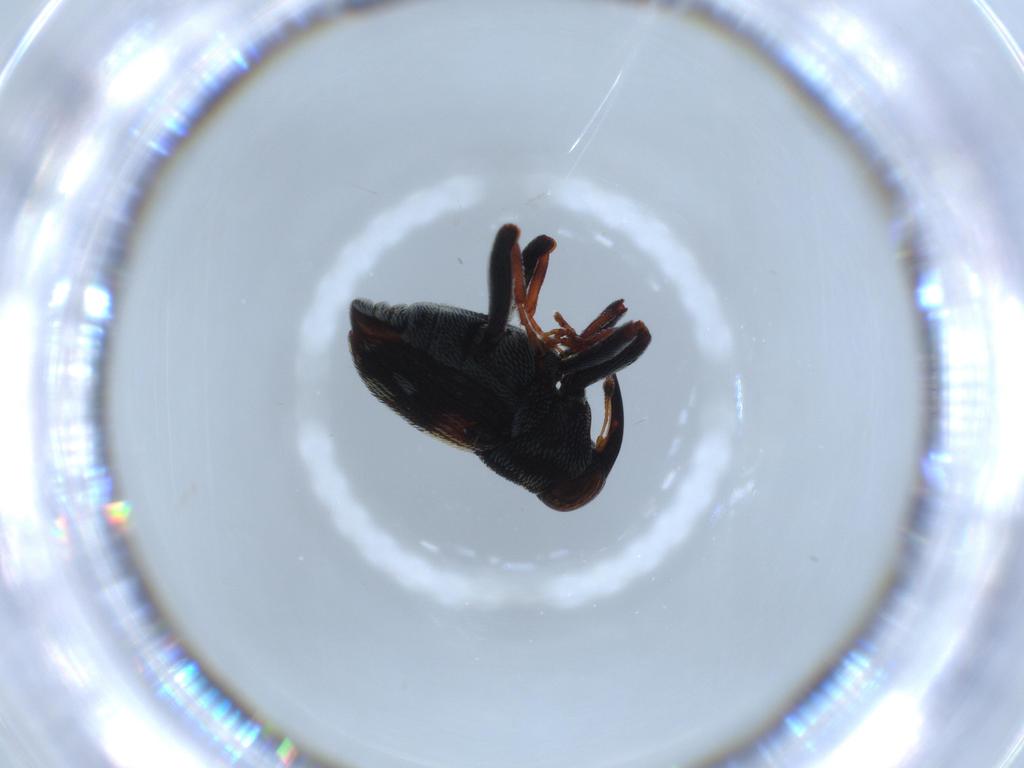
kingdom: Animalia
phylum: Arthropoda
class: Insecta
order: Coleoptera
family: Curculionidae
